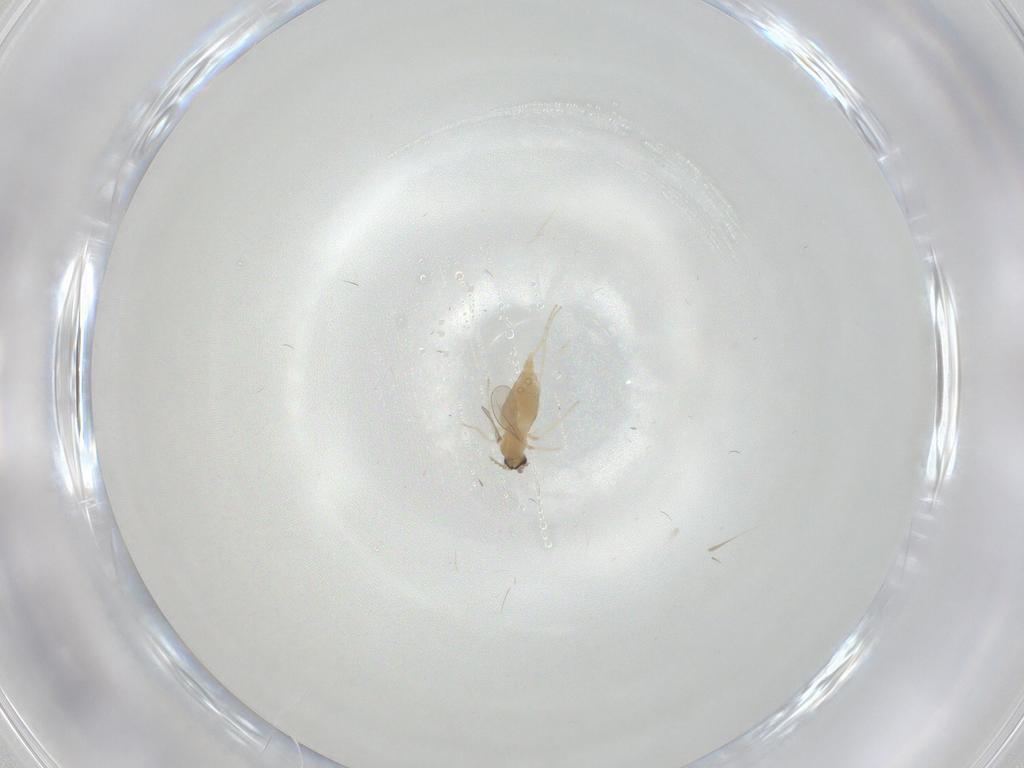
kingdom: Animalia
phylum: Arthropoda
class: Insecta
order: Diptera
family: Cecidomyiidae
